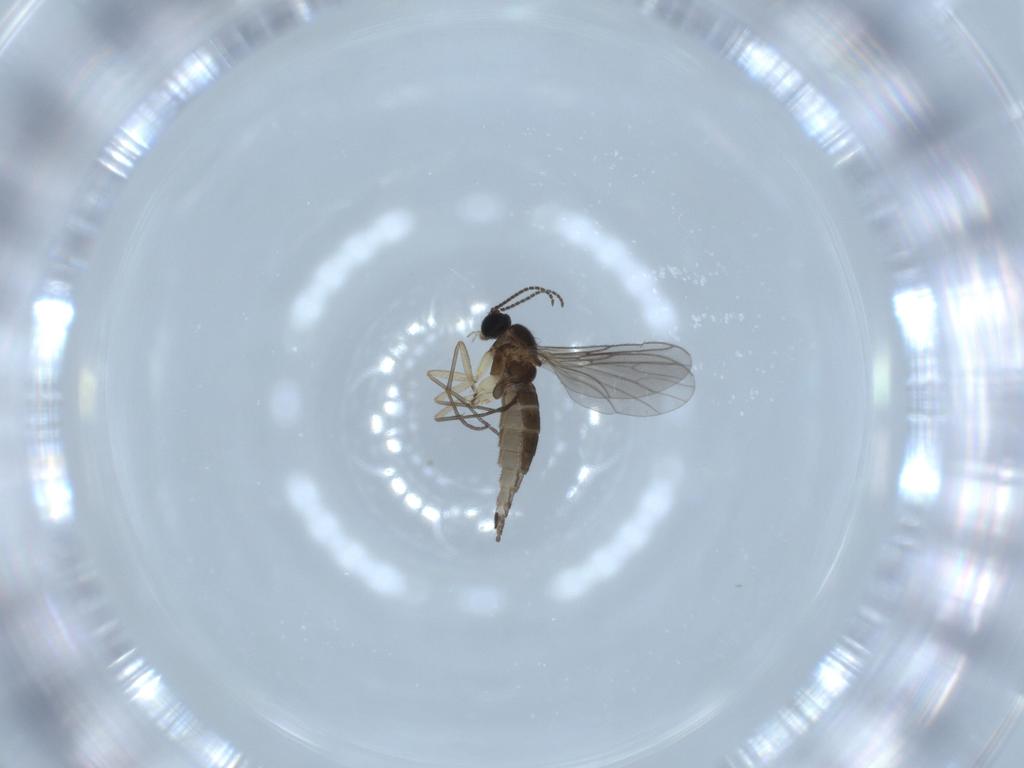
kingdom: Animalia
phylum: Arthropoda
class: Insecta
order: Diptera
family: Sciaridae
